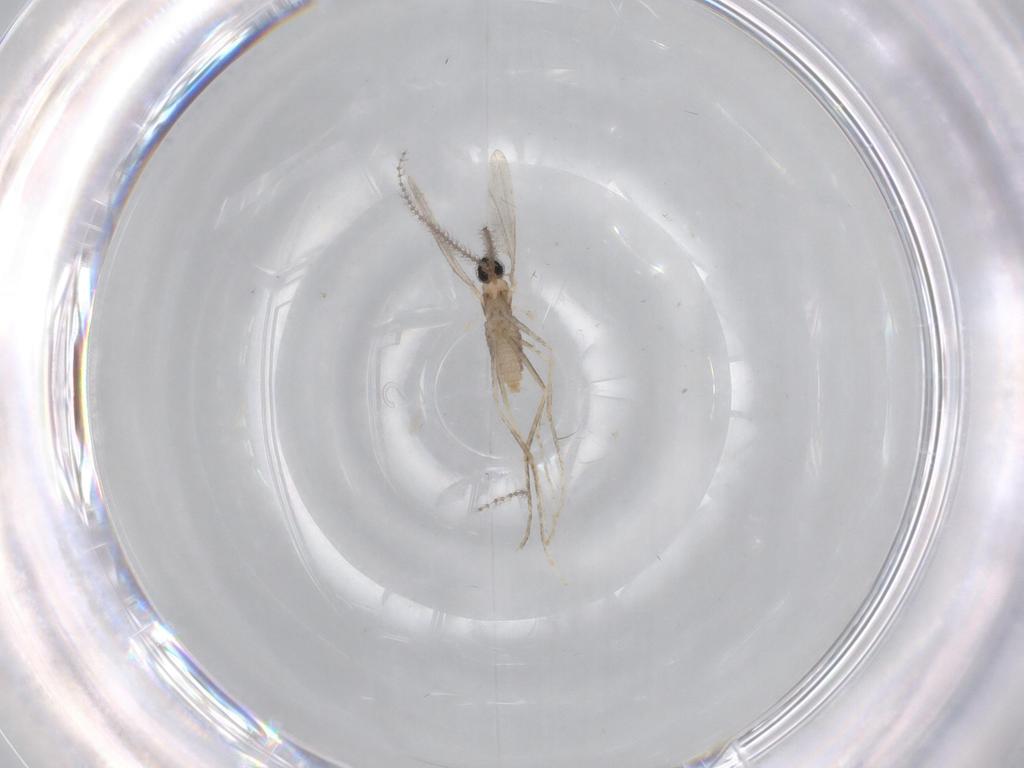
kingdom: Animalia
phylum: Arthropoda
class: Insecta
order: Diptera
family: Cecidomyiidae
